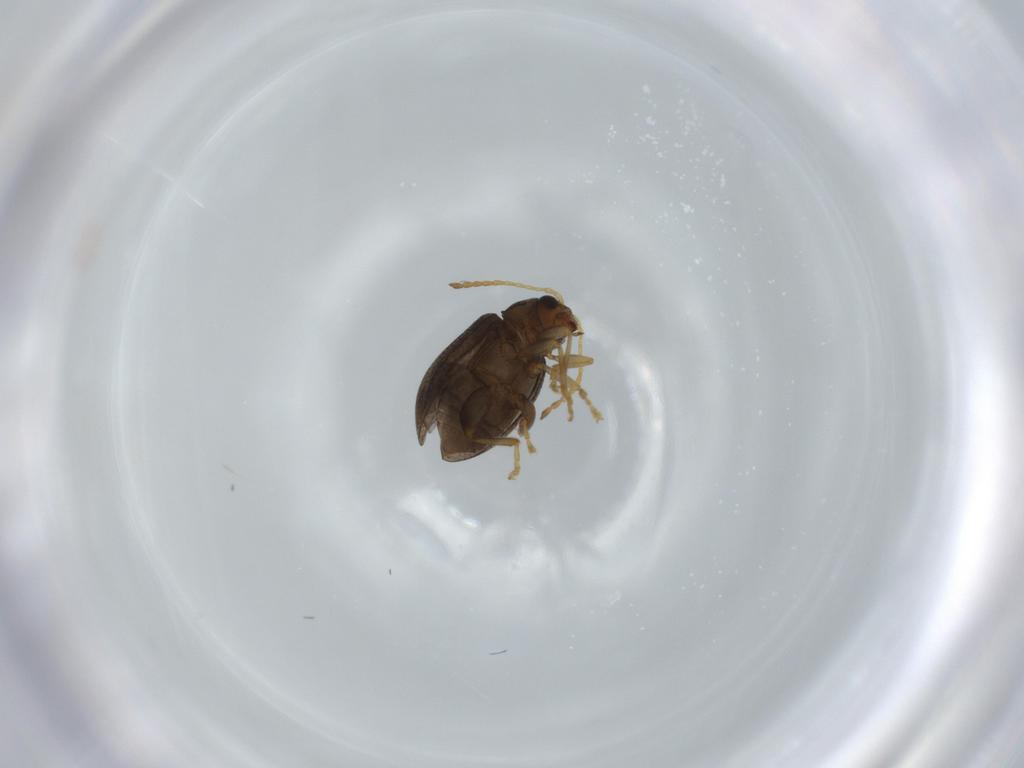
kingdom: Animalia
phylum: Arthropoda
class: Insecta
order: Coleoptera
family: Chrysomelidae
